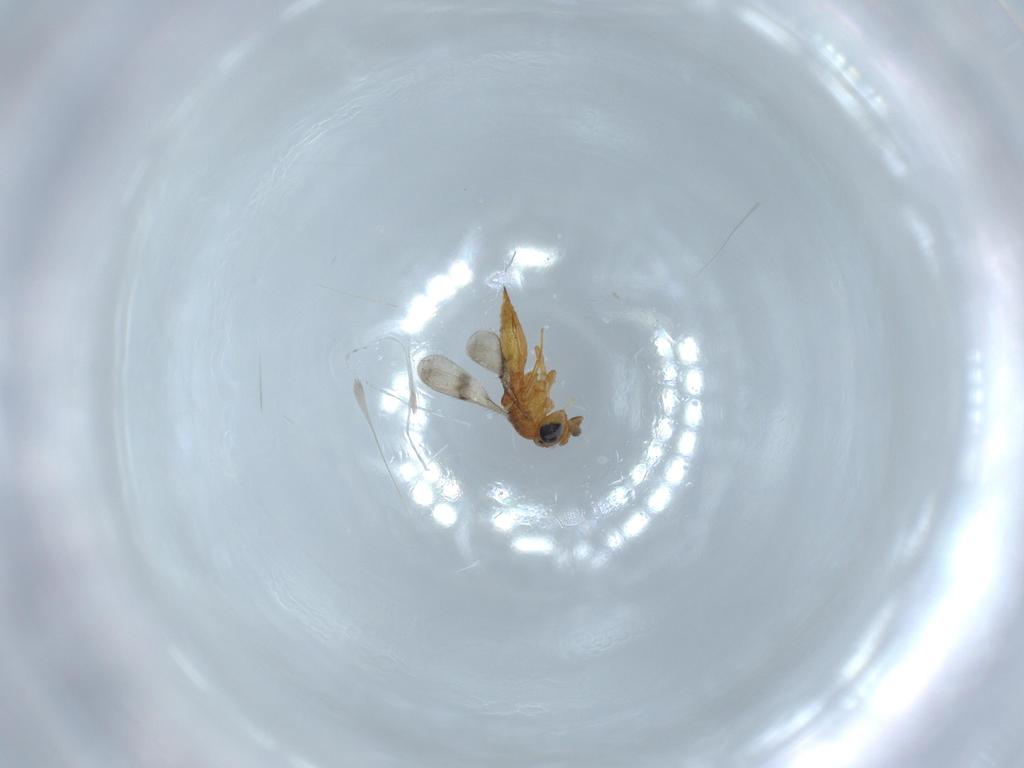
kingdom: Animalia
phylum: Arthropoda
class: Insecta
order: Hymenoptera
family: Scelionidae
